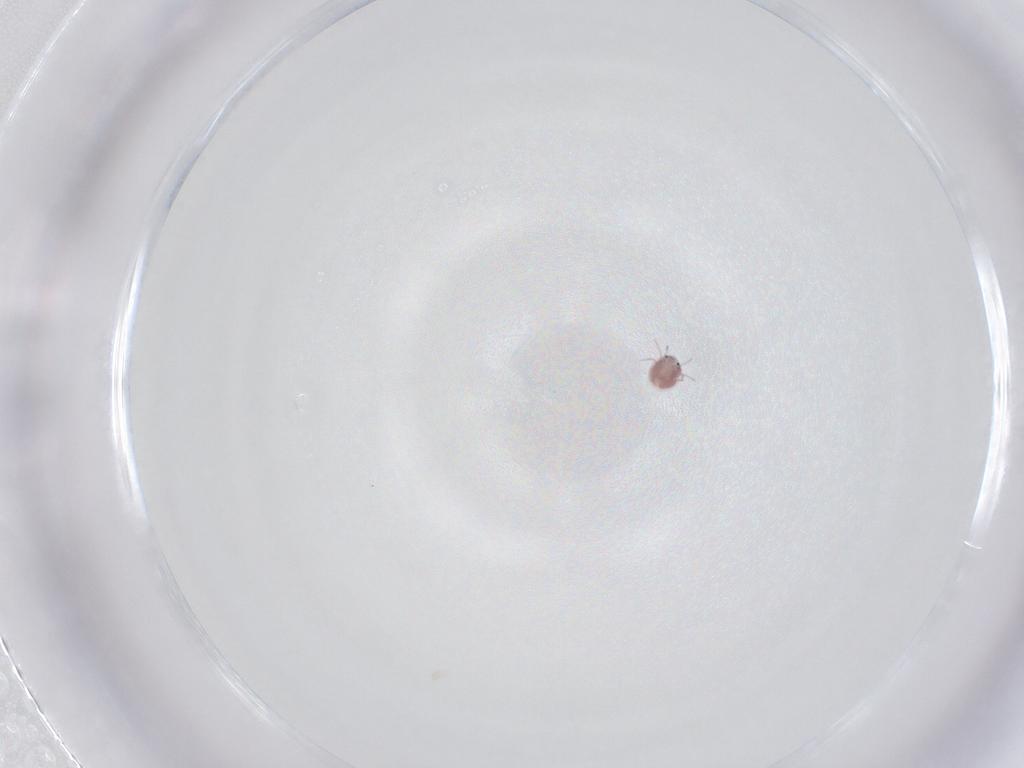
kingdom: Animalia
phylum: Arthropoda
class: Arachnida
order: Trombidiformes
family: Pionidae
